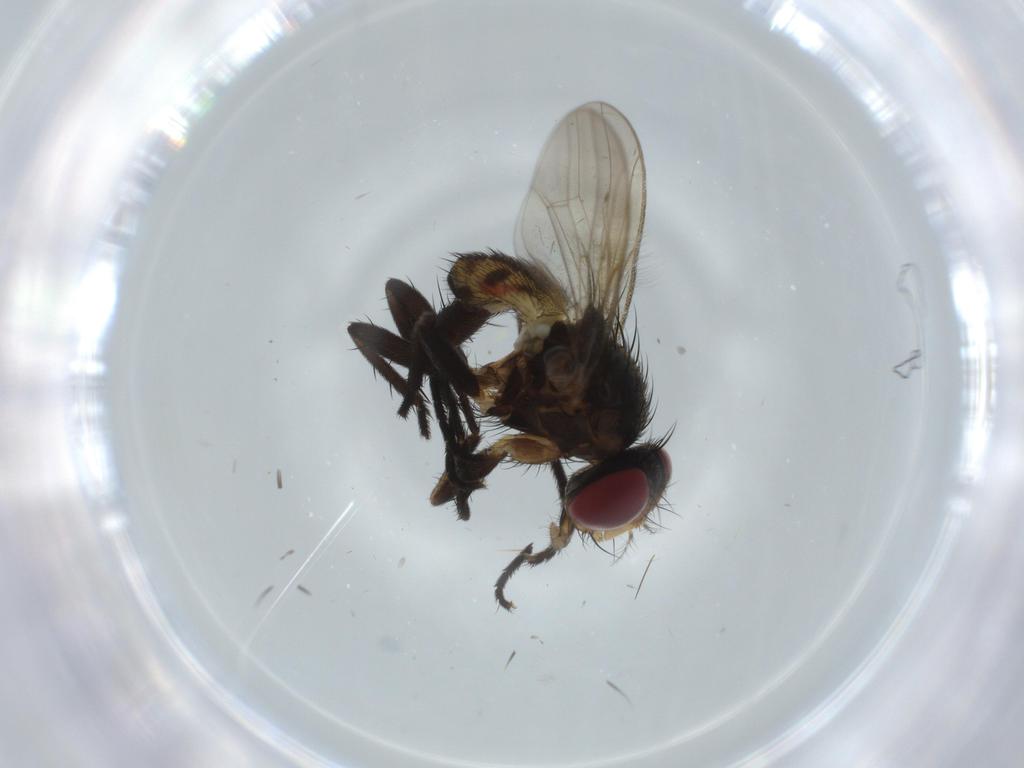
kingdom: Animalia
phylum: Arthropoda
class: Insecta
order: Diptera
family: Anthomyiidae
